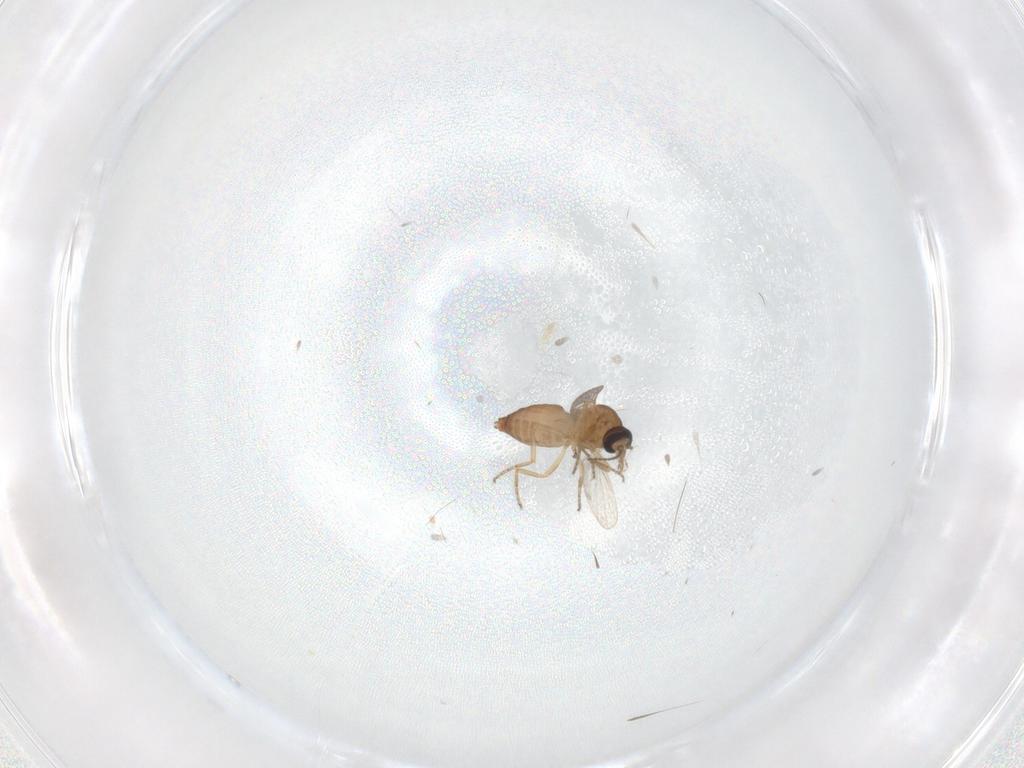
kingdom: Animalia
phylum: Arthropoda
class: Insecta
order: Diptera
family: Ceratopogonidae
